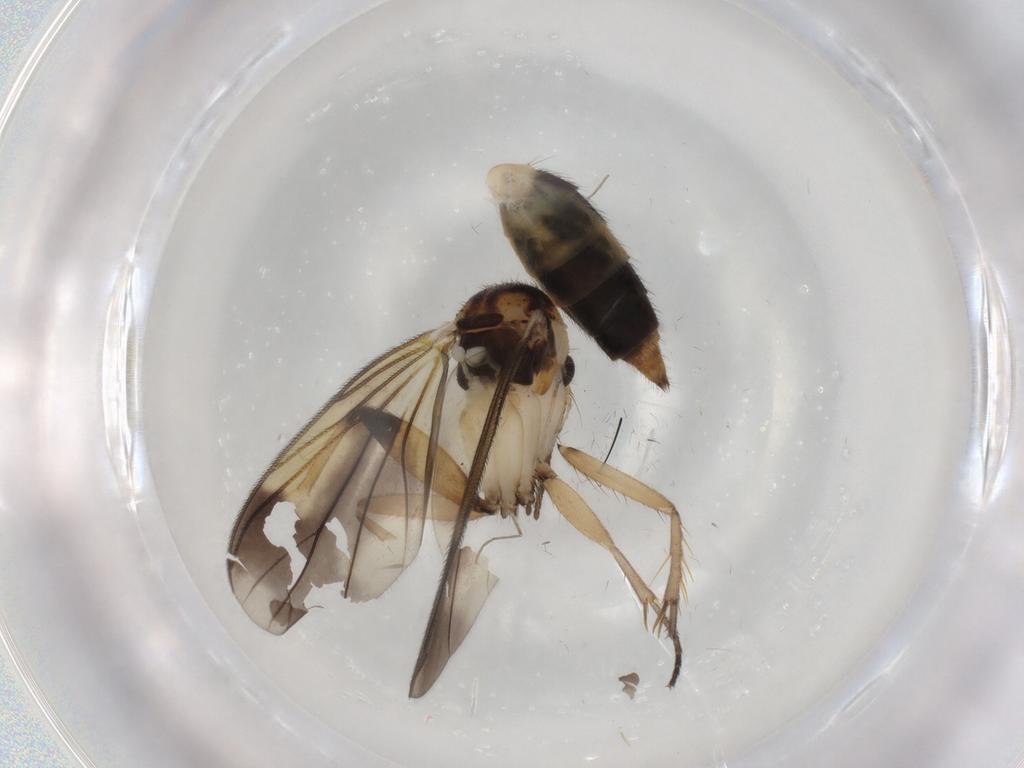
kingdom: Animalia
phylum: Arthropoda
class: Insecta
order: Diptera
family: Mycetophilidae
